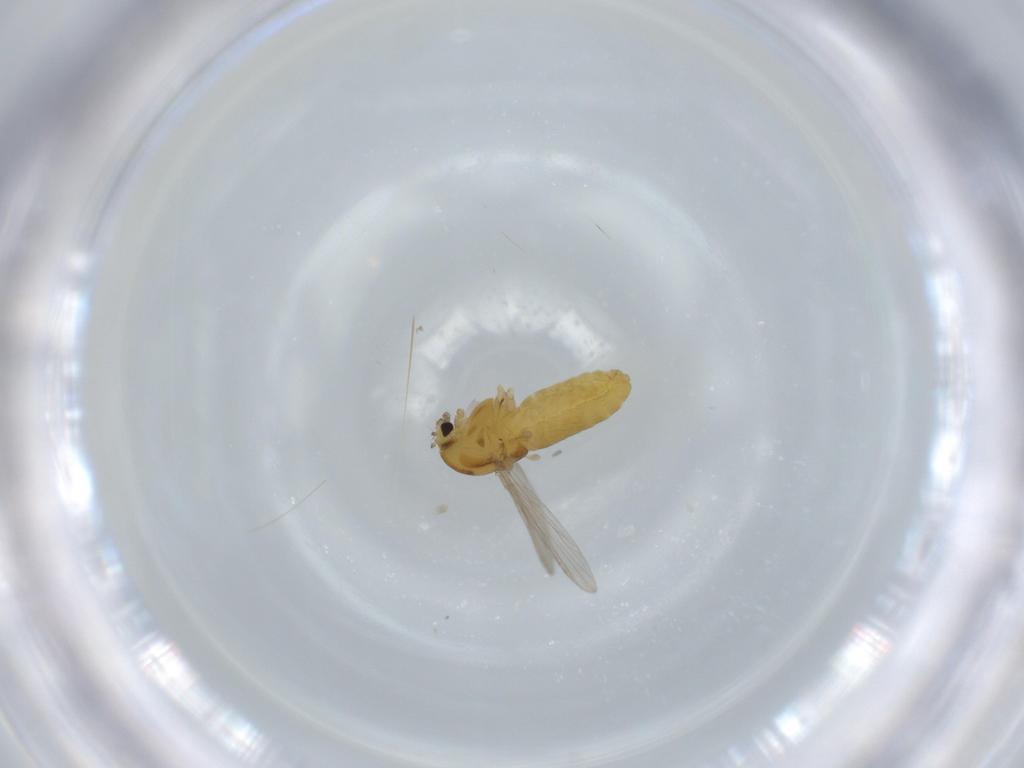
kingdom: Animalia
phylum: Arthropoda
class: Insecta
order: Diptera
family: Chironomidae
